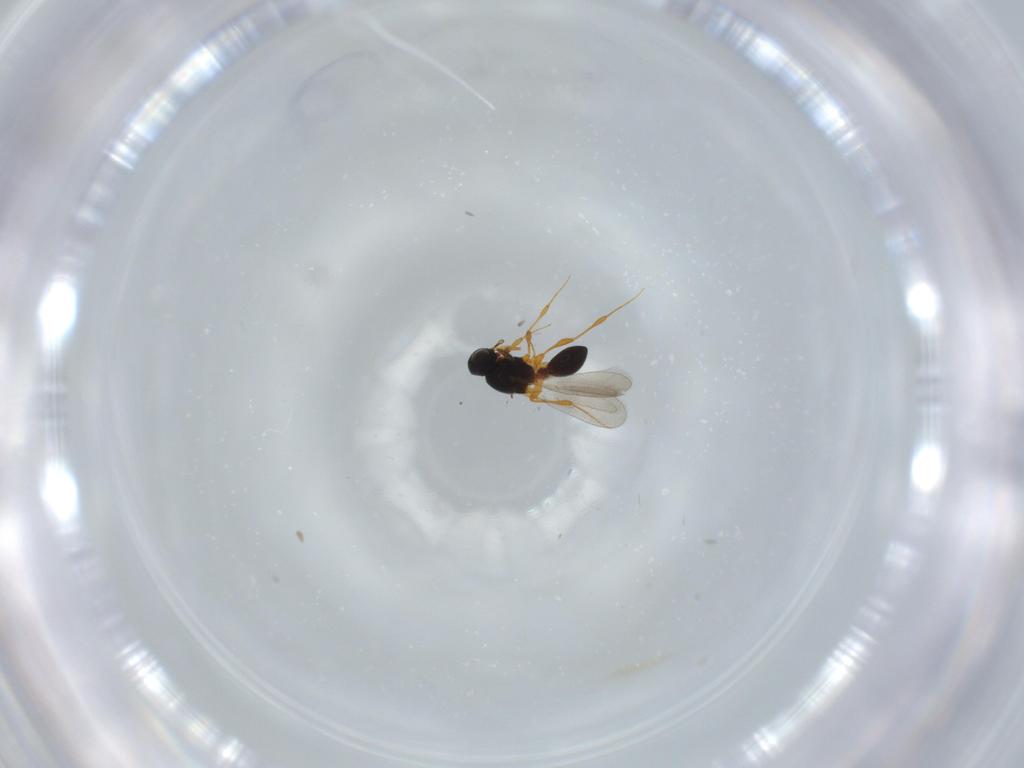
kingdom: Animalia
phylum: Arthropoda
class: Insecta
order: Hymenoptera
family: Platygastridae
